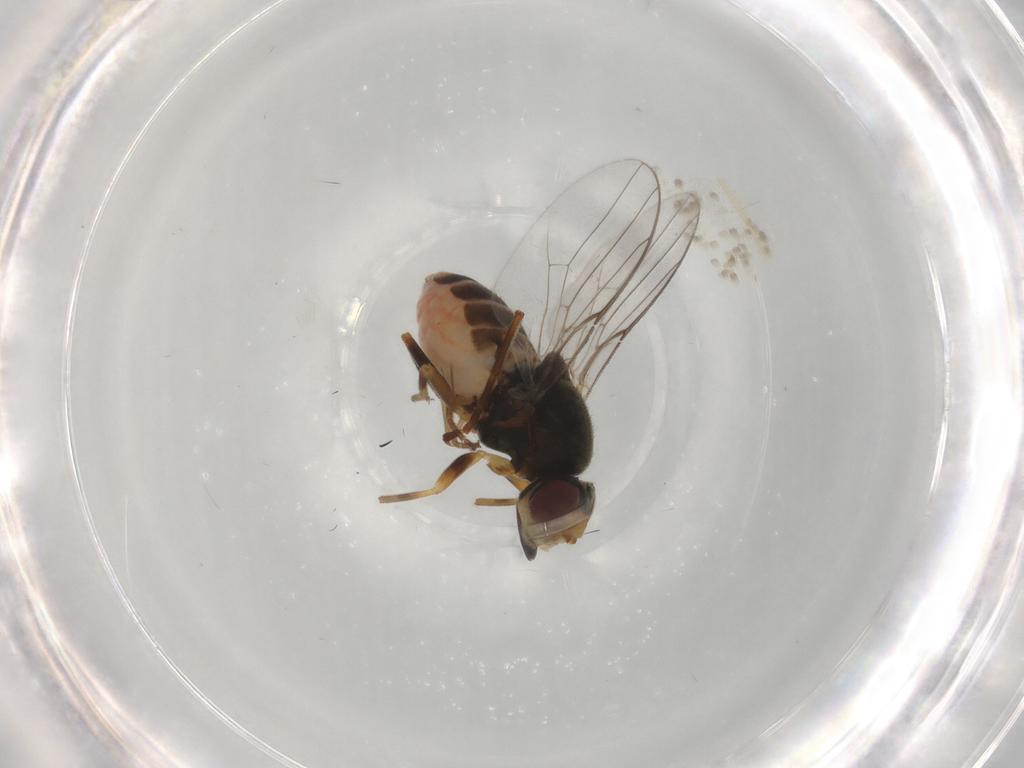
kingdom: Animalia
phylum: Arthropoda
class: Insecta
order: Diptera
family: Chloropidae
